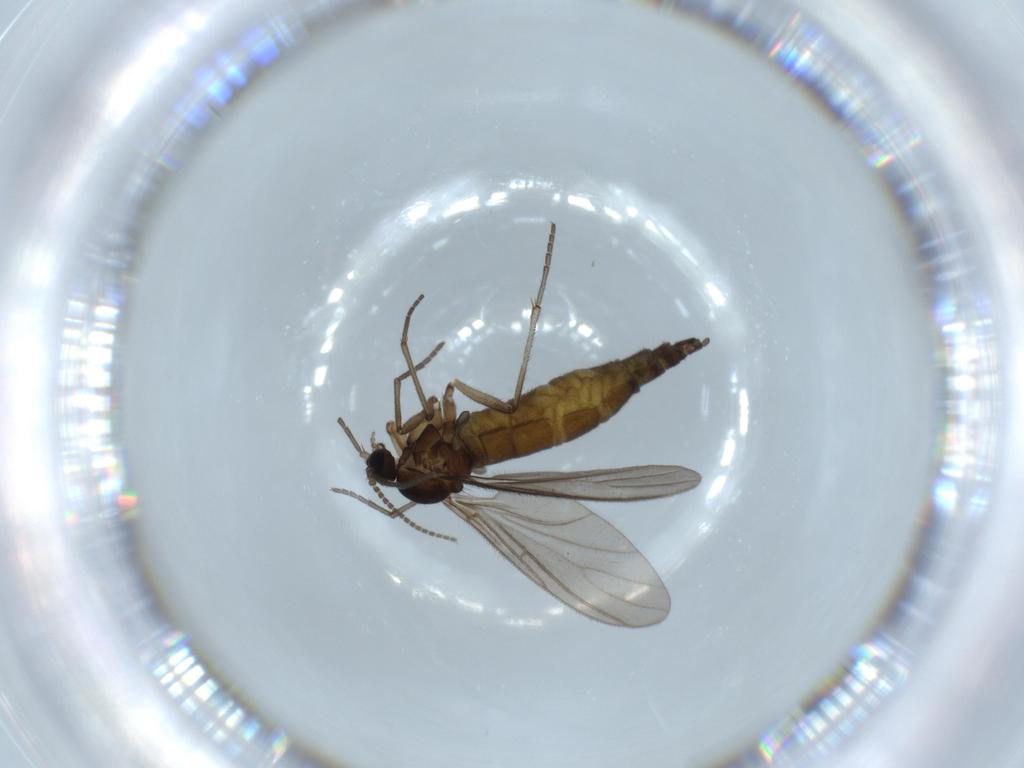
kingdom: Animalia
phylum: Arthropoda
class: Insecta
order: Diptera
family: Sciaridae
